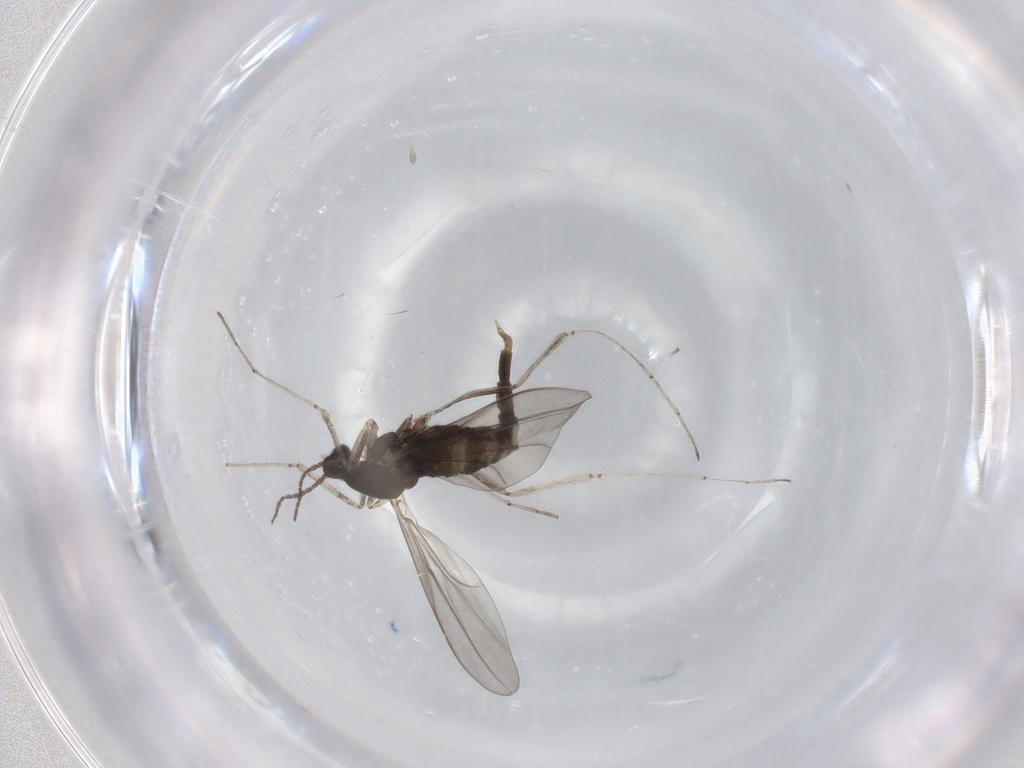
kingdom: Animalia
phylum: Arthropoda
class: Insecta
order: Diptera
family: Cecidomyiidae
